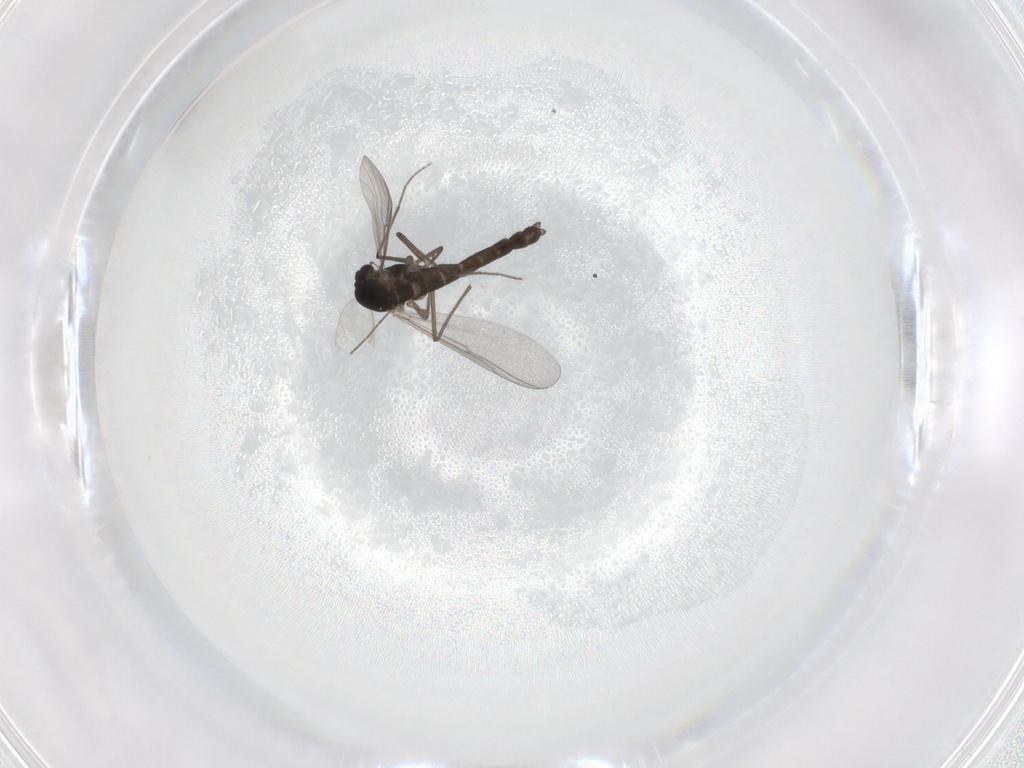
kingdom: Animalia
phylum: Arthropoda
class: Insecta
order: Diptera
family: Chironomidae
